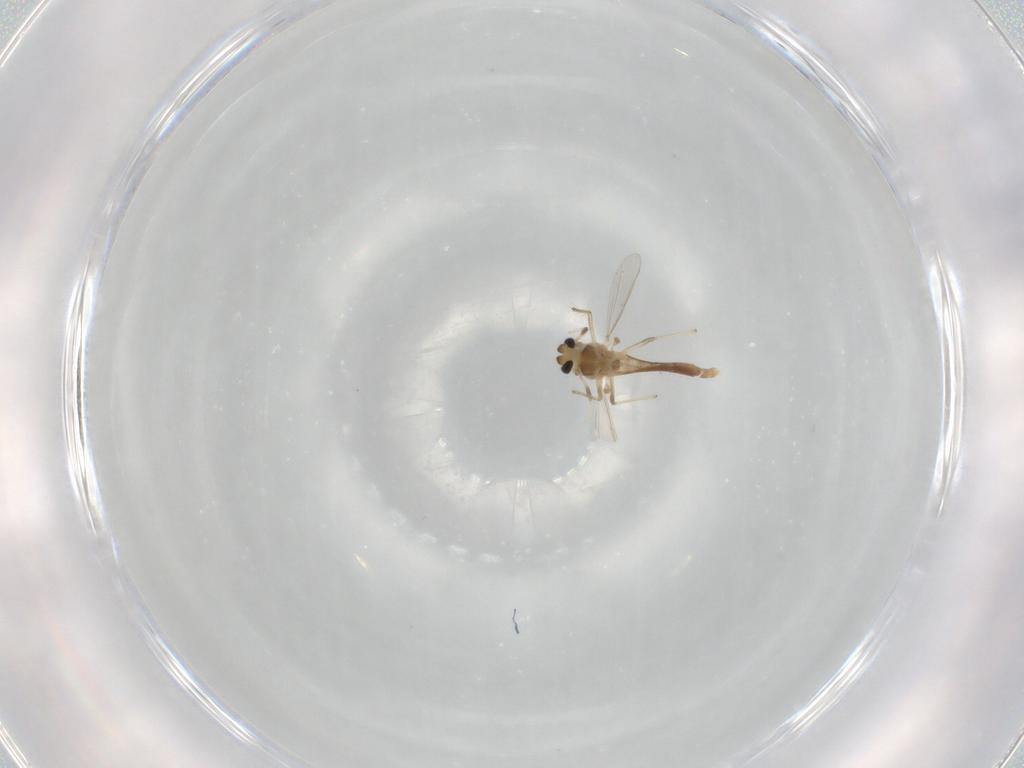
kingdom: Animalia
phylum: Arthropoda
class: Insecta
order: Diptera
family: Chironomidae
